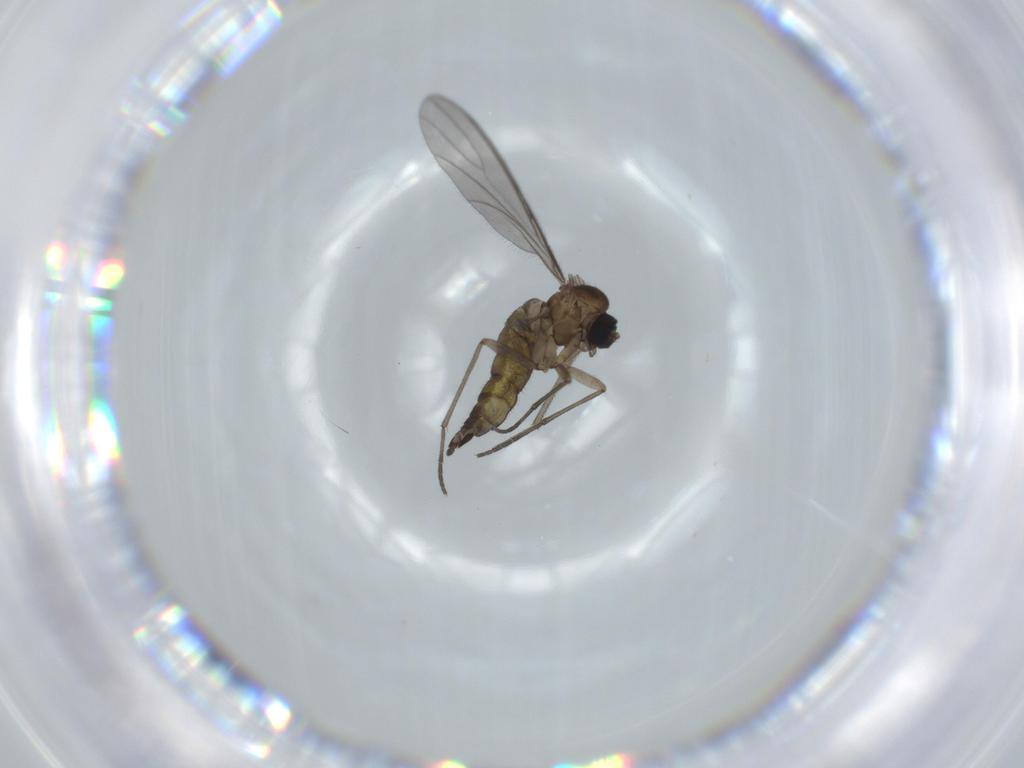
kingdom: Animalia
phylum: Arthropoda
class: Insecta
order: Diptera
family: Sciaridae
